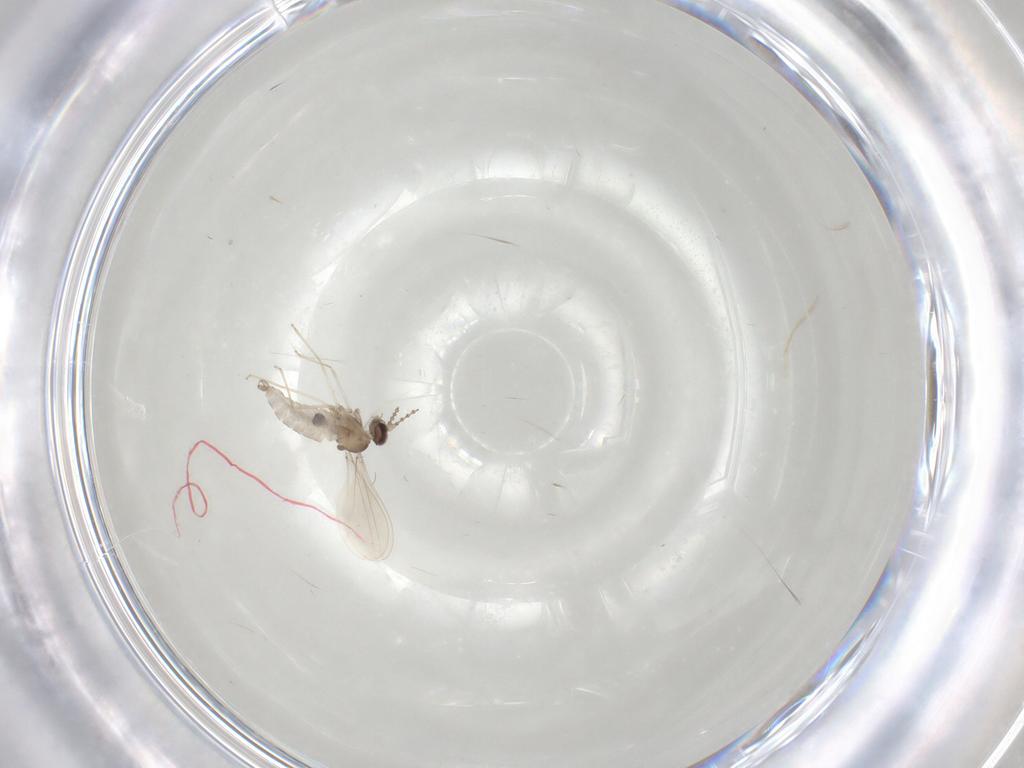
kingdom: Animalia
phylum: Arthropoda
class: Insecta
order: Diptera
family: Cecidomyiidae
